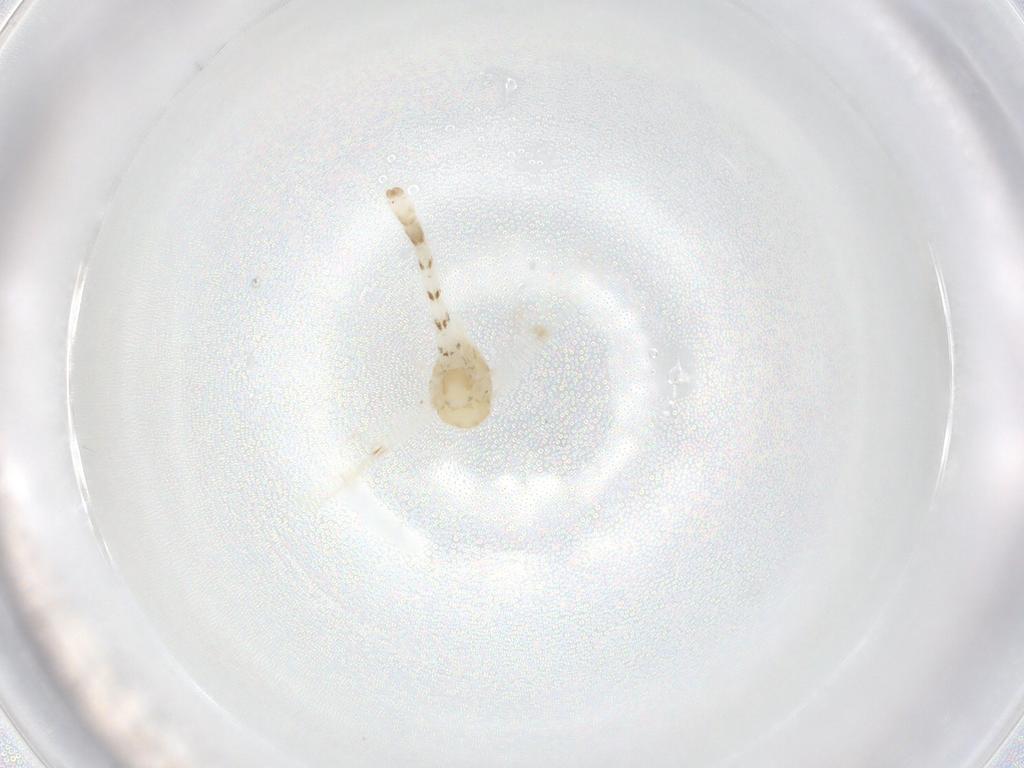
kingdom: Animalia
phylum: Arthropoda
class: Insecta
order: Diptera
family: Chironomidae
